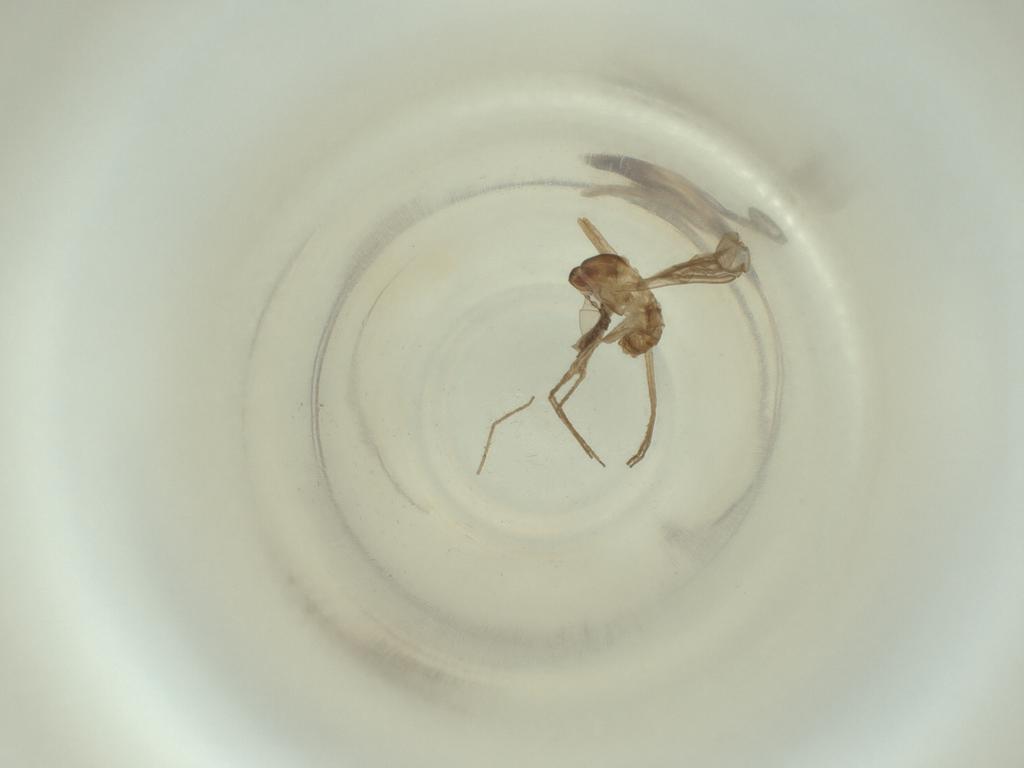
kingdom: Animalia
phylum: Arthropoda
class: Insecta
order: Diptera
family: Cecidomyiidae
